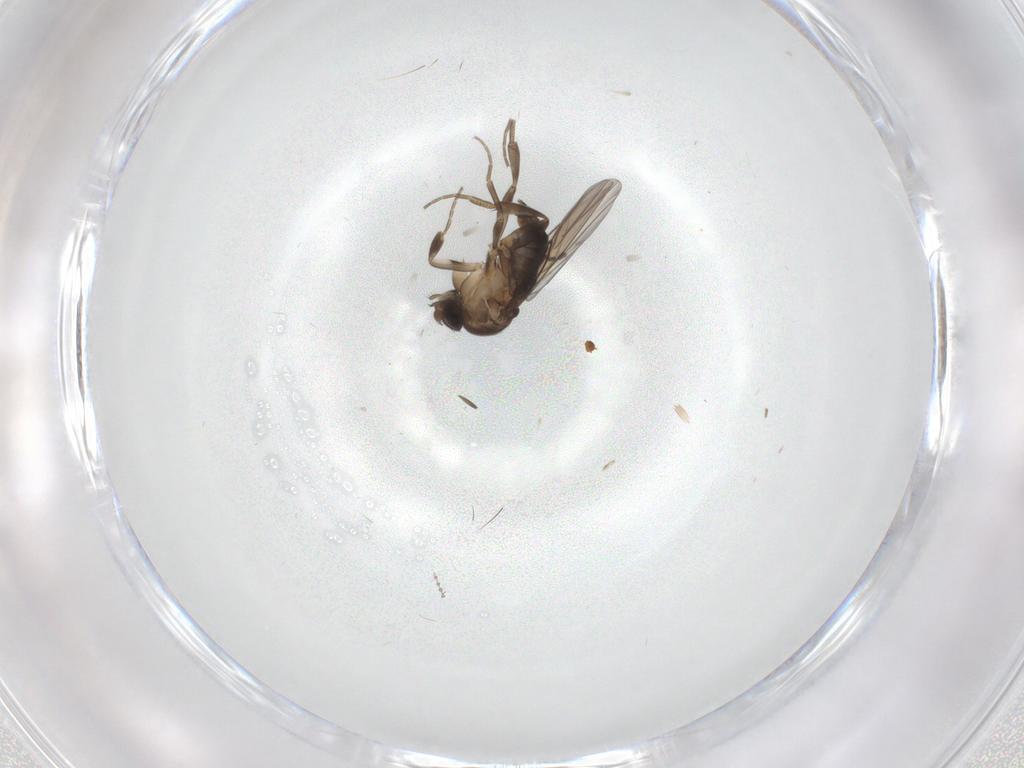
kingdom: Animalia
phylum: Arthropoda
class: Insecta
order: Diptera
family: Phoridae
